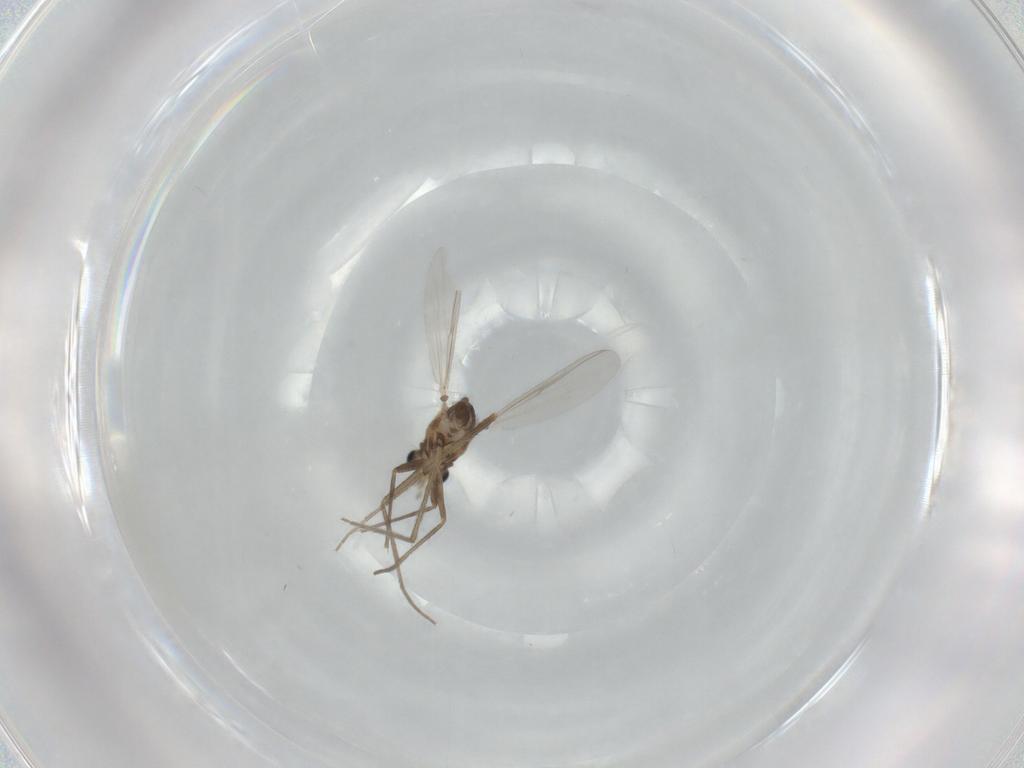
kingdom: Animalia
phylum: Arthropoda
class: Insecta
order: Diptera
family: Chironomidae
